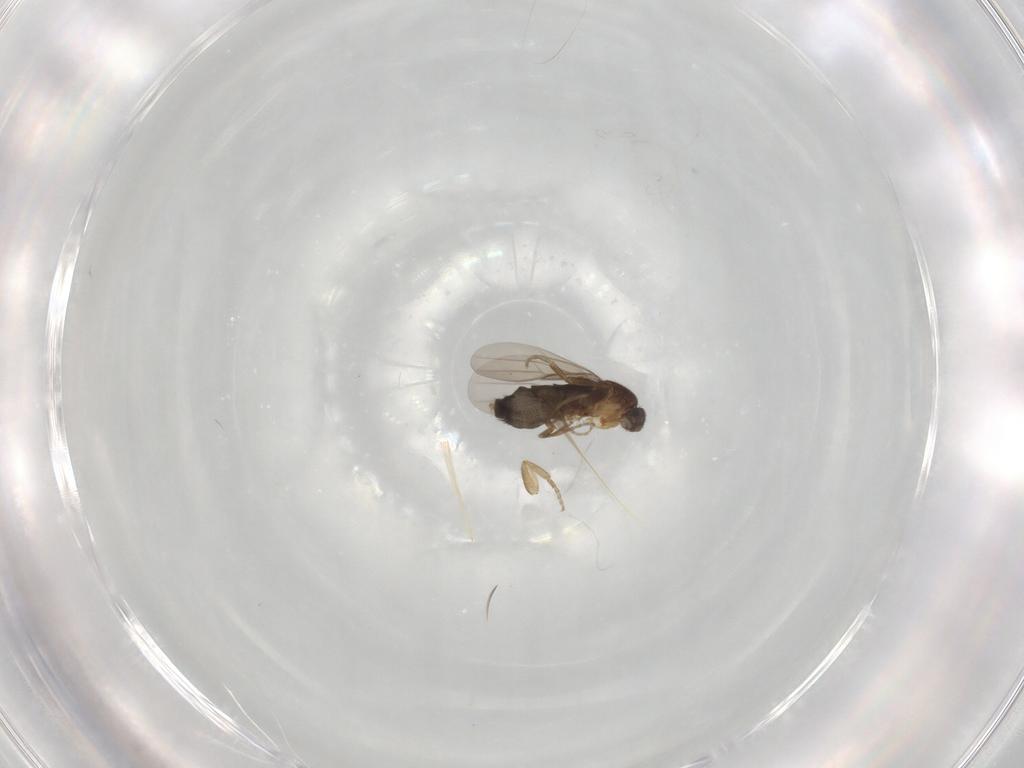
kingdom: Animalia
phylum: Arthropoda
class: Insecta
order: Diptera
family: Phoridae
